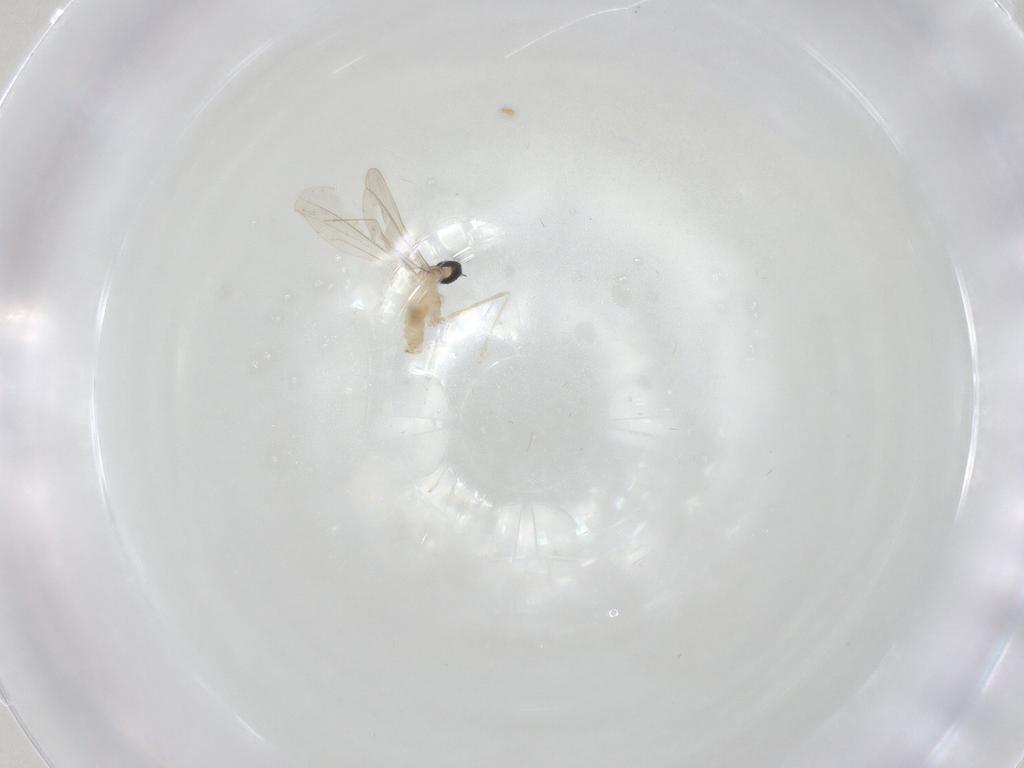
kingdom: Animalia
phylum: Arthropoda
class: Insecta
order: Diptera
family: Cecidomyiidae
